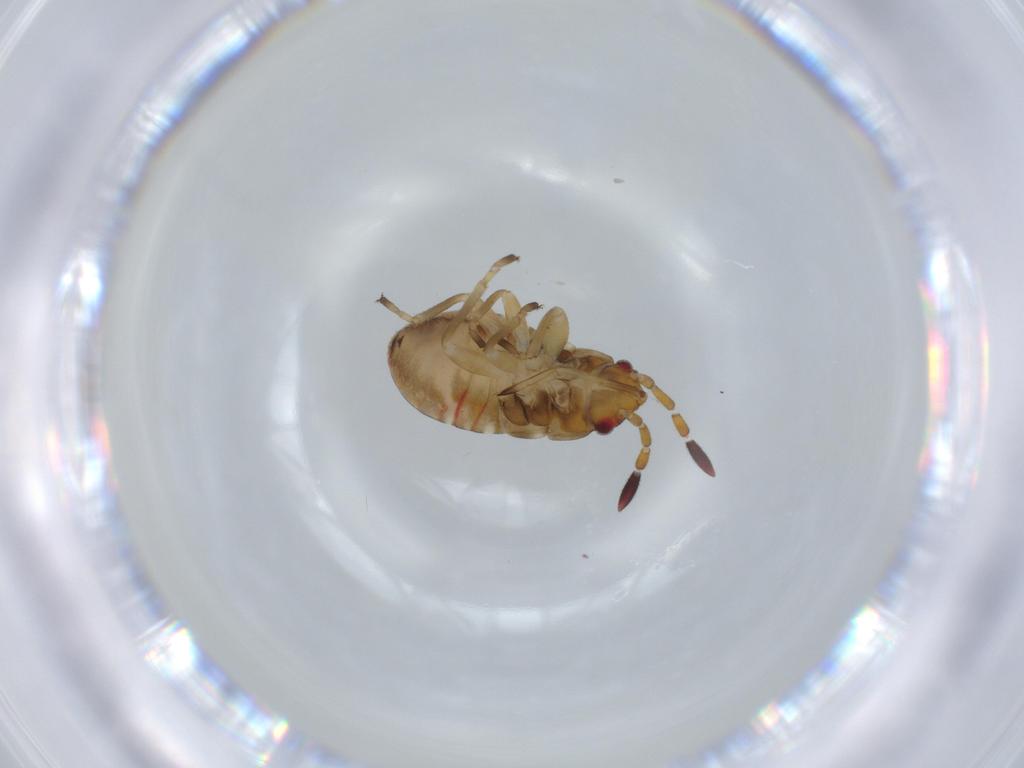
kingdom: Animalia
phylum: Arthropoda
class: Insecta
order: Hemiptera
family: Rhyparochromidae
